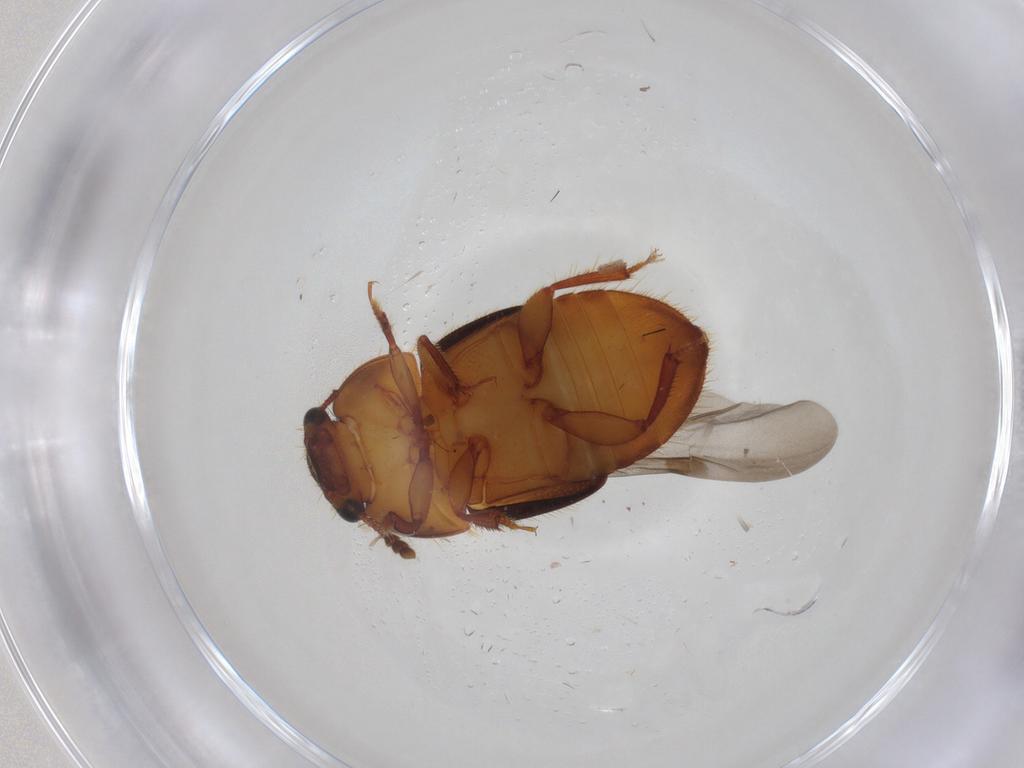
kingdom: Animalia
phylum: Arthropoda
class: Insecta
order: Coleoptera
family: Nitidulidae
